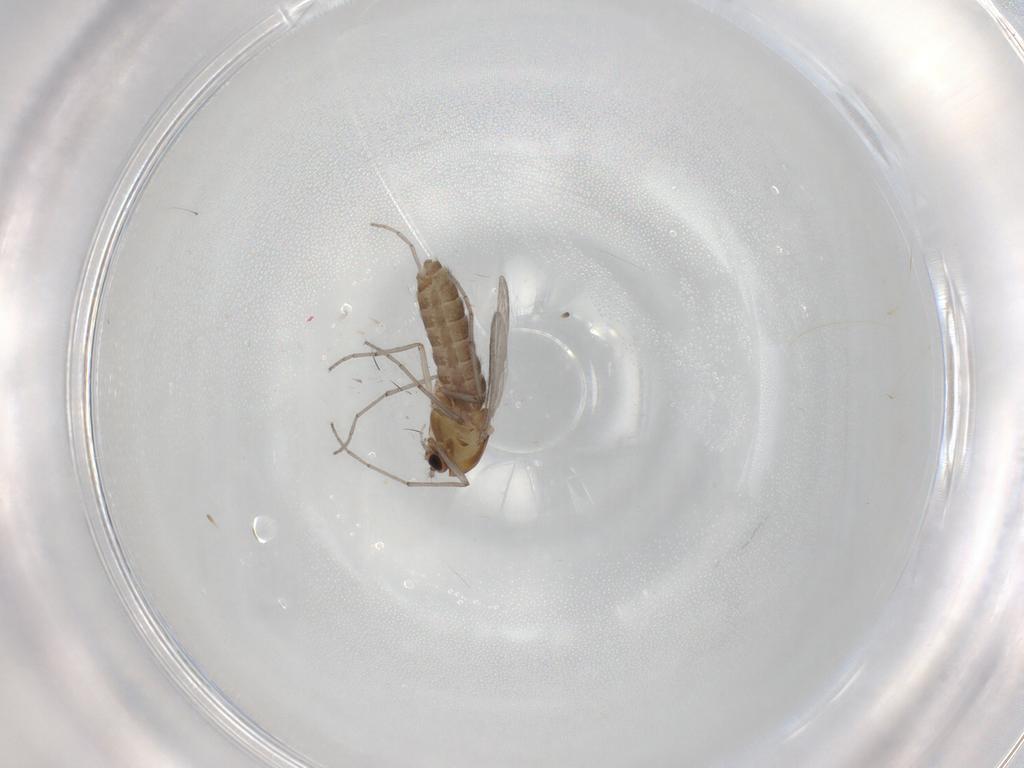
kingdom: Animalia
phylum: Arthropoda
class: Insecta
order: Diptera
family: Chironomidae
